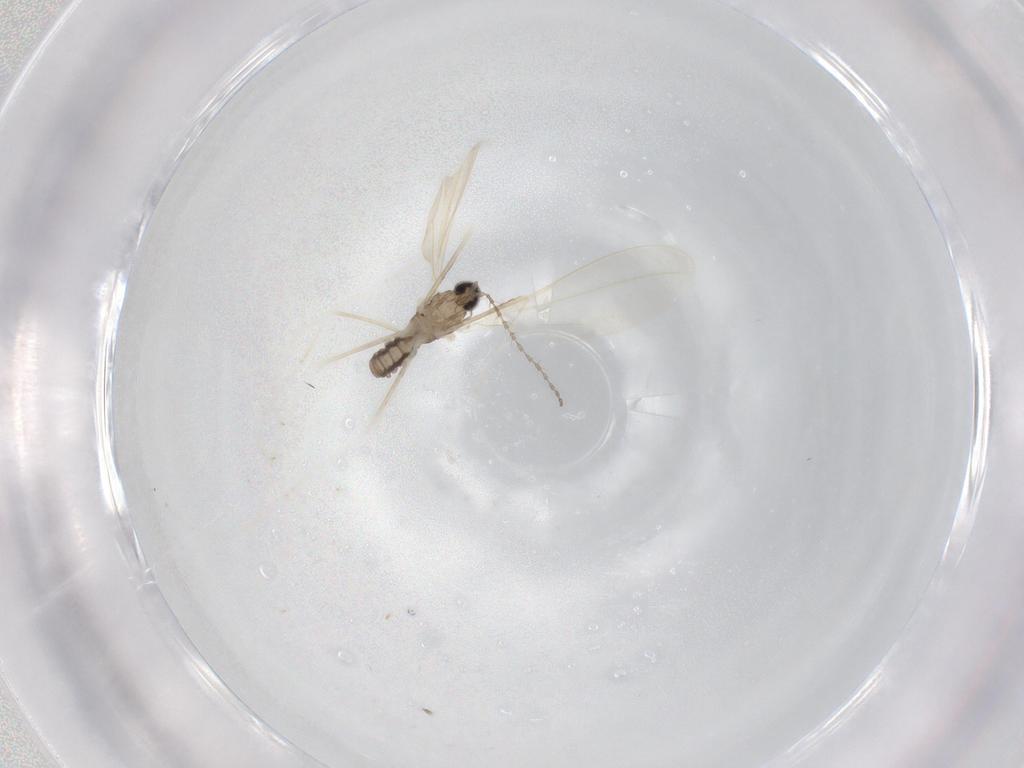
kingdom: Animalia
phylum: Arthropoda
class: Insecta
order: Diptera
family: Cecidomyiidae
